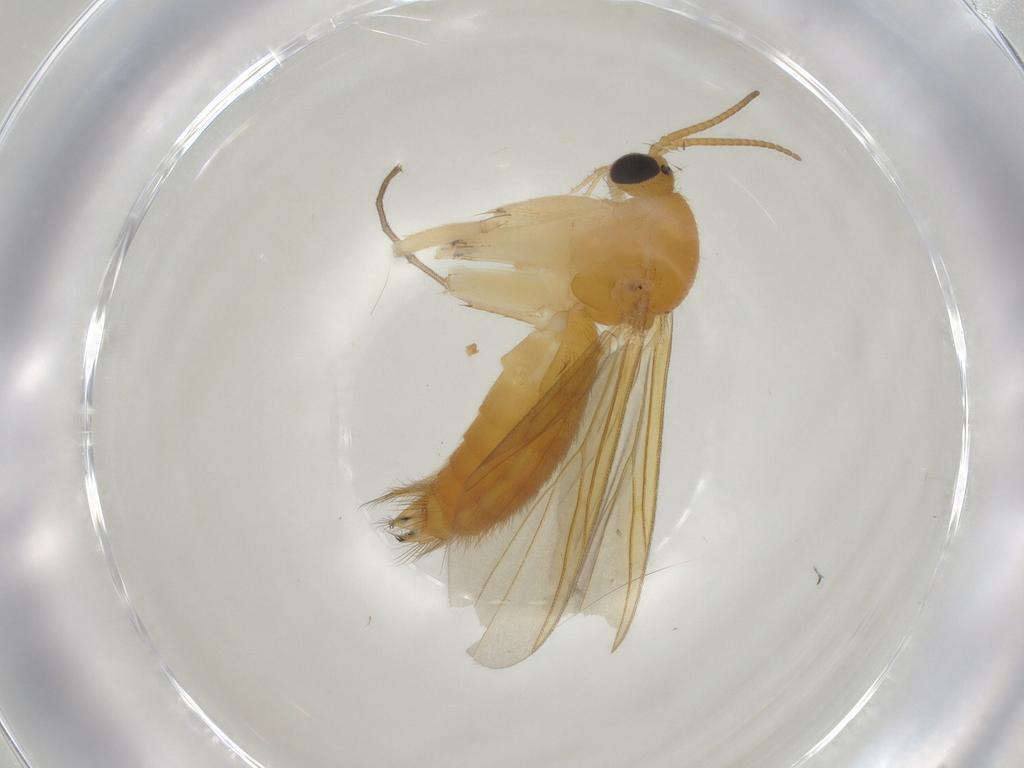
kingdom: Animalia
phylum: Arthropoda
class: Insecta
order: Diptera
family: Mycetophilidae
